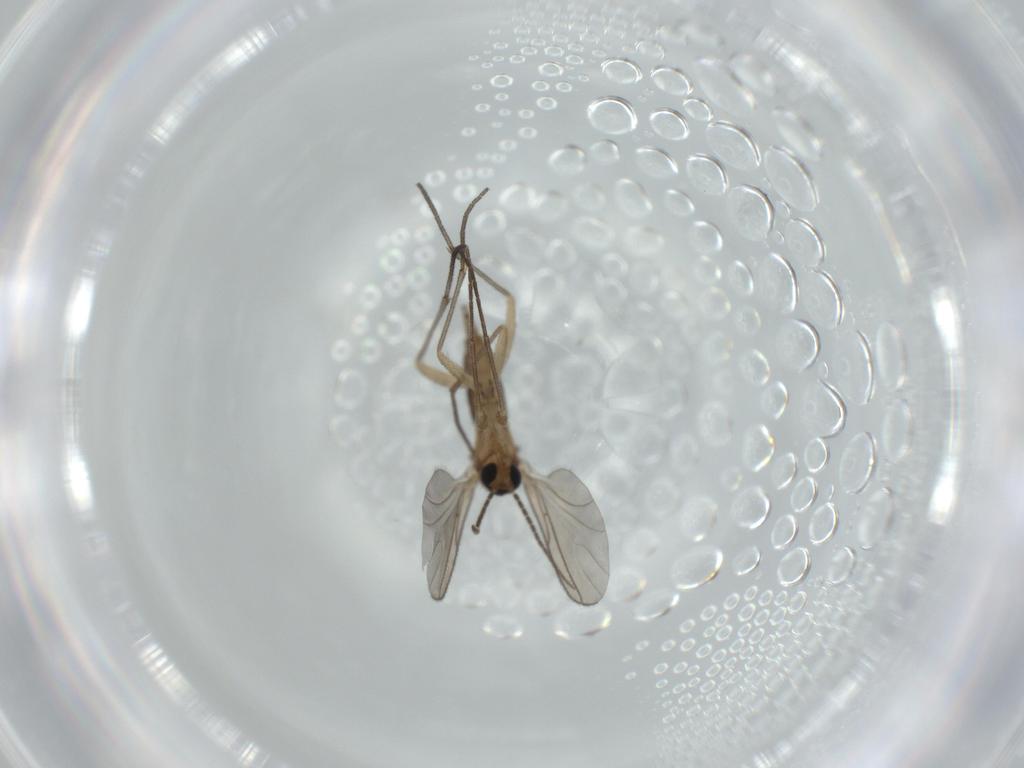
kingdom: Animalia
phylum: Arthropoda
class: Insecta
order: Diptera
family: Sciaridae
